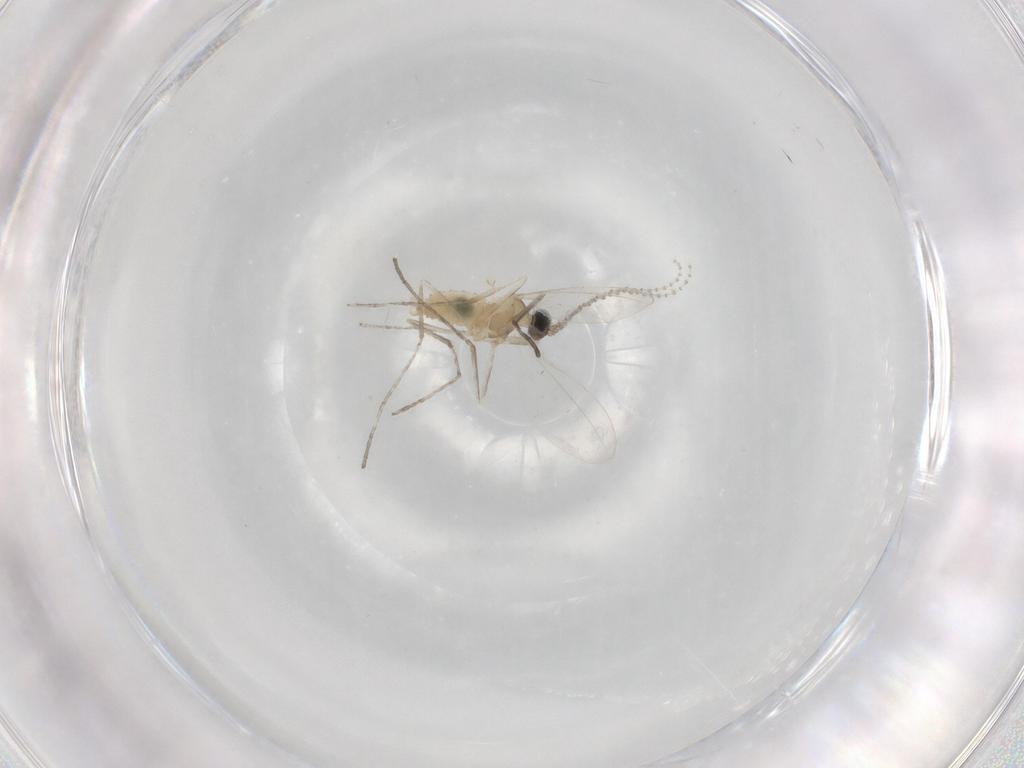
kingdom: Animalia
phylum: Arthropoda
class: Insecta
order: Diptera
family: Cecidomyiidae
